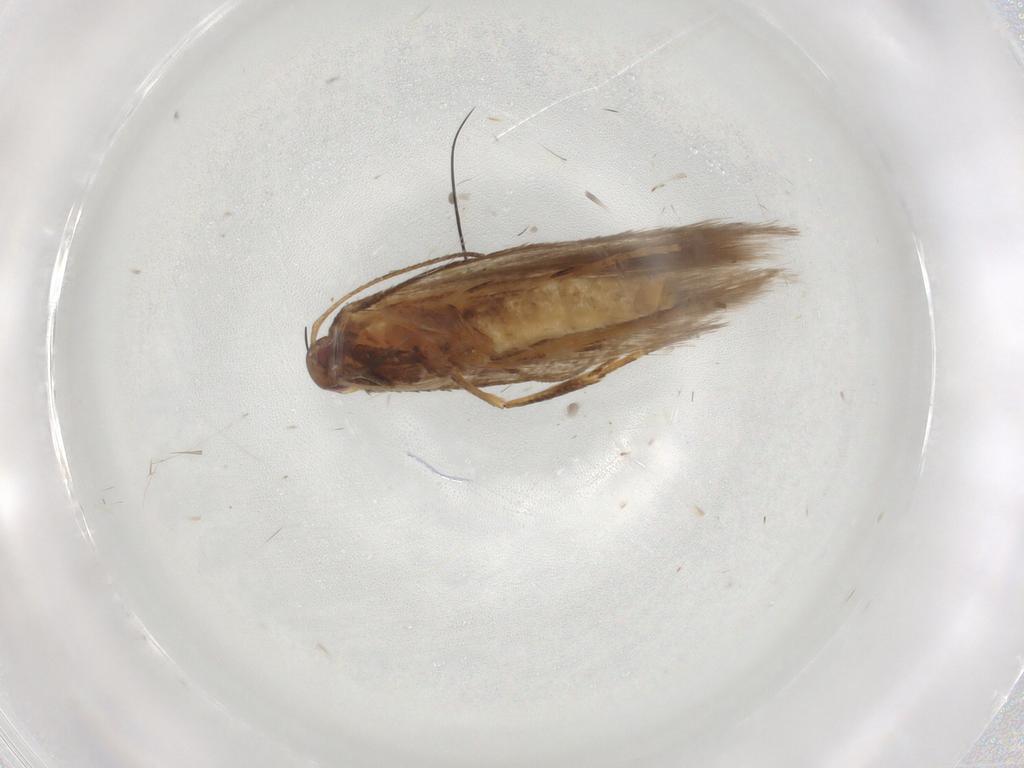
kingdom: Animalia
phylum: Arthropoda
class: Insecta
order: Lepidoptera
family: Gelechiidae
